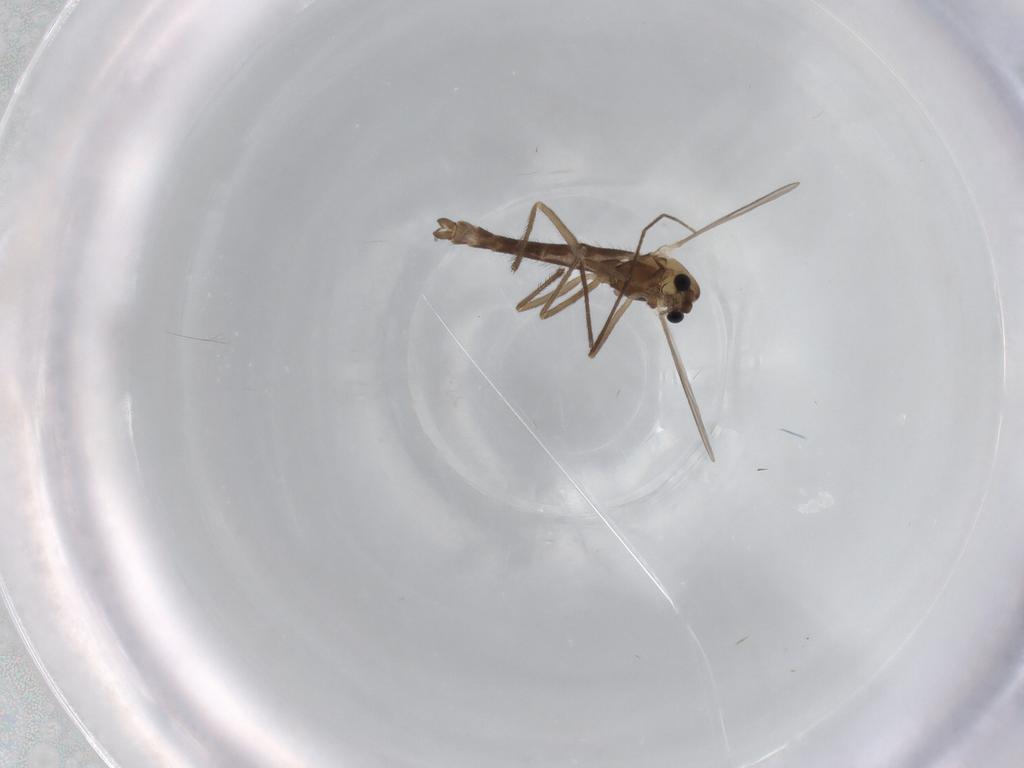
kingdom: Animalia
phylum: Arthropoda
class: Insecta
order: Diptera
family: Chironomidae
